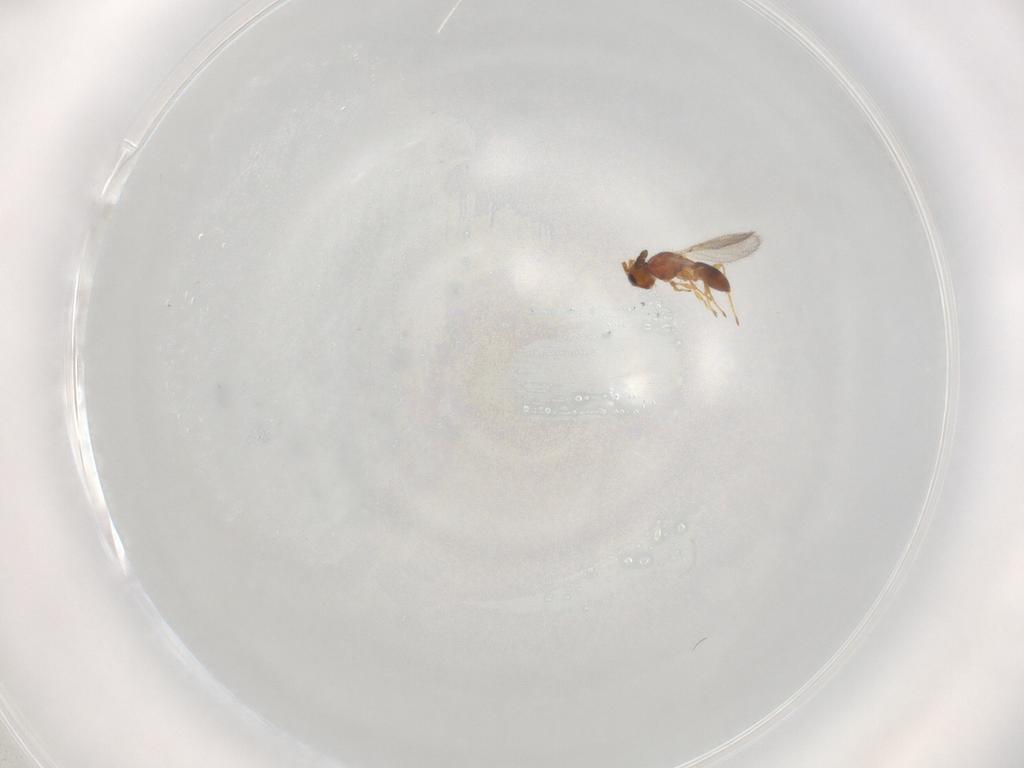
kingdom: Animalia
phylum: Arthropoda
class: Insecta
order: Hymenoptera
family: Diapriidae
